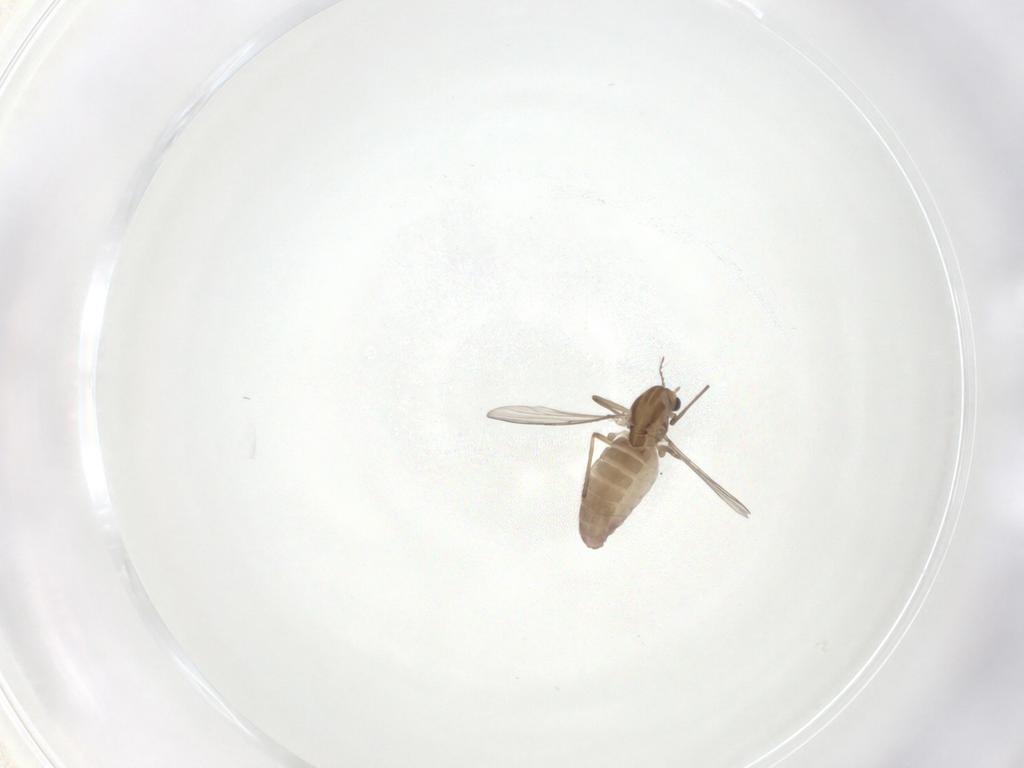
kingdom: Animalia
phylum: Arthropoda
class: Insecta
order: Diptera
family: Chironomidae
